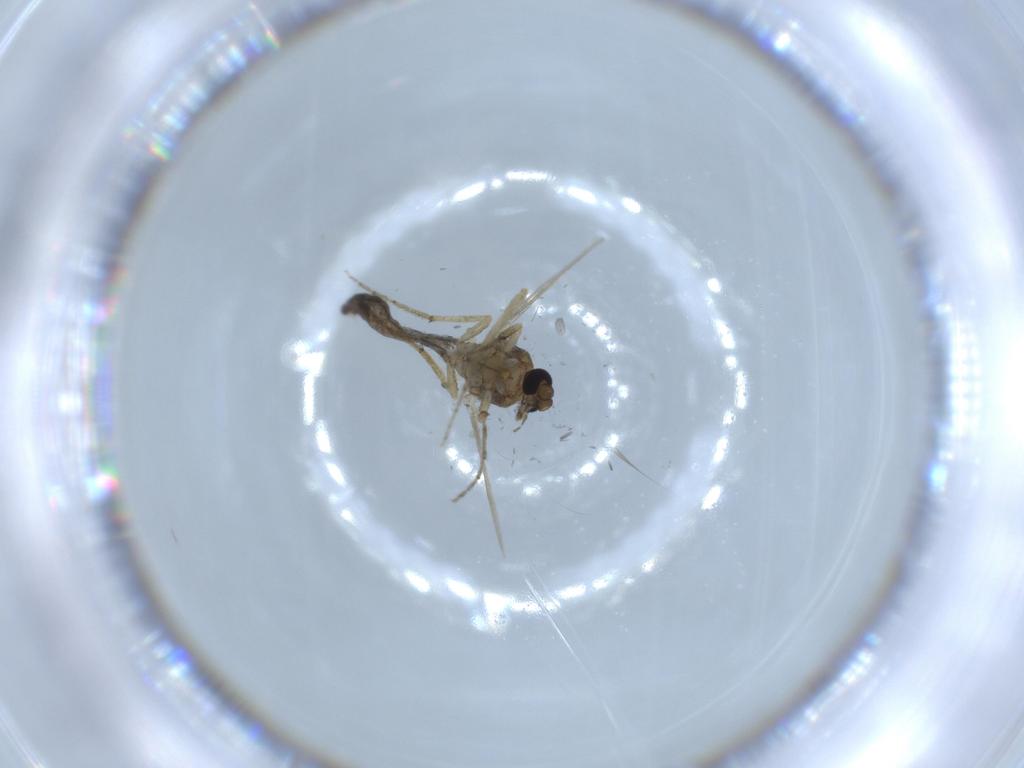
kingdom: Animalia
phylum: Arthropoda
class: Insecta
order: Diptera
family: Ceratopogonidae
